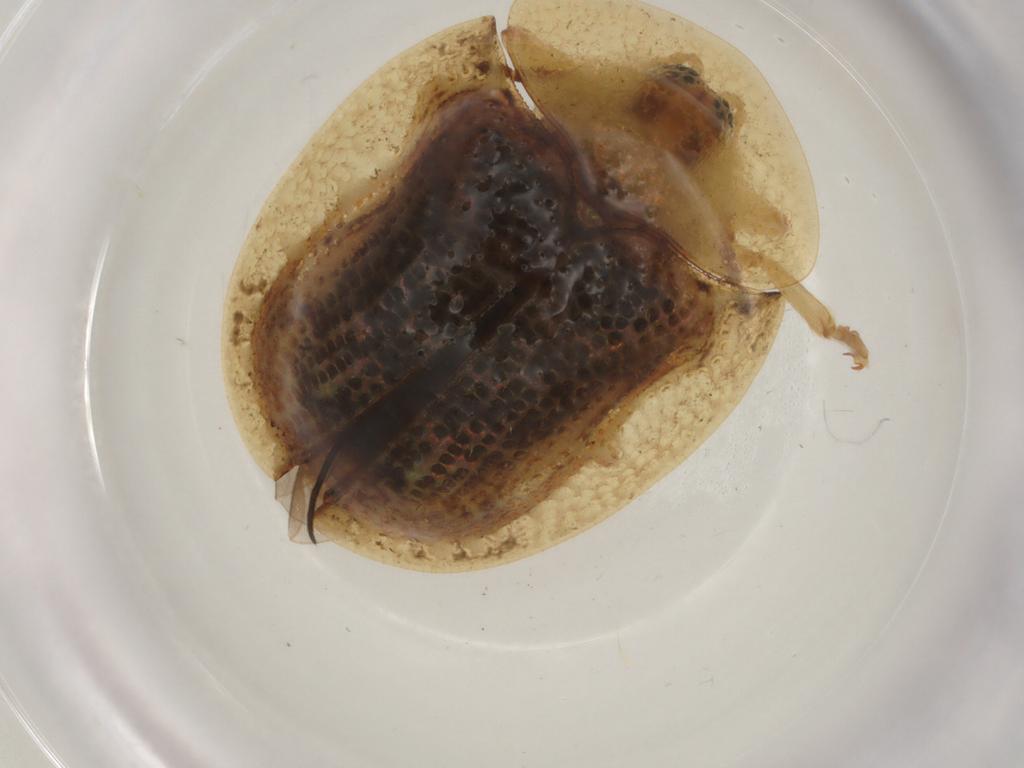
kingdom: Animalia
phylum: Arthropoda
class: Insecta
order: Coleoptera
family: Tenebrionidae
